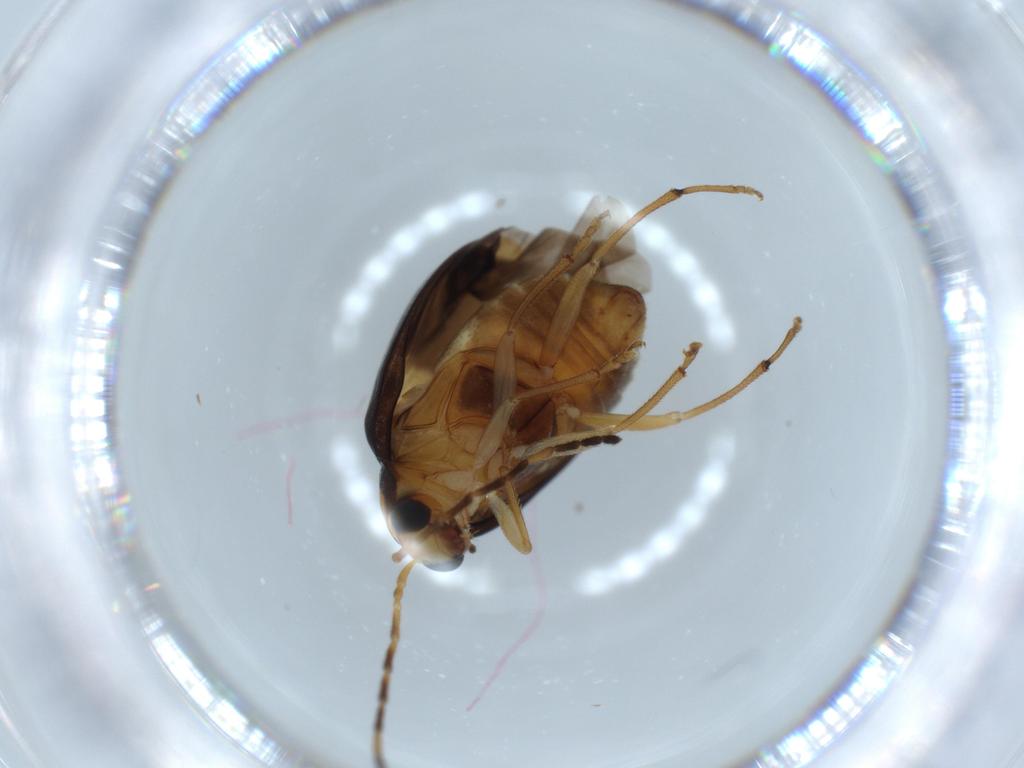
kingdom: Animalia
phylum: Arthropoda
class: Insecta
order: Coleoptera
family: Chrysomelidae
